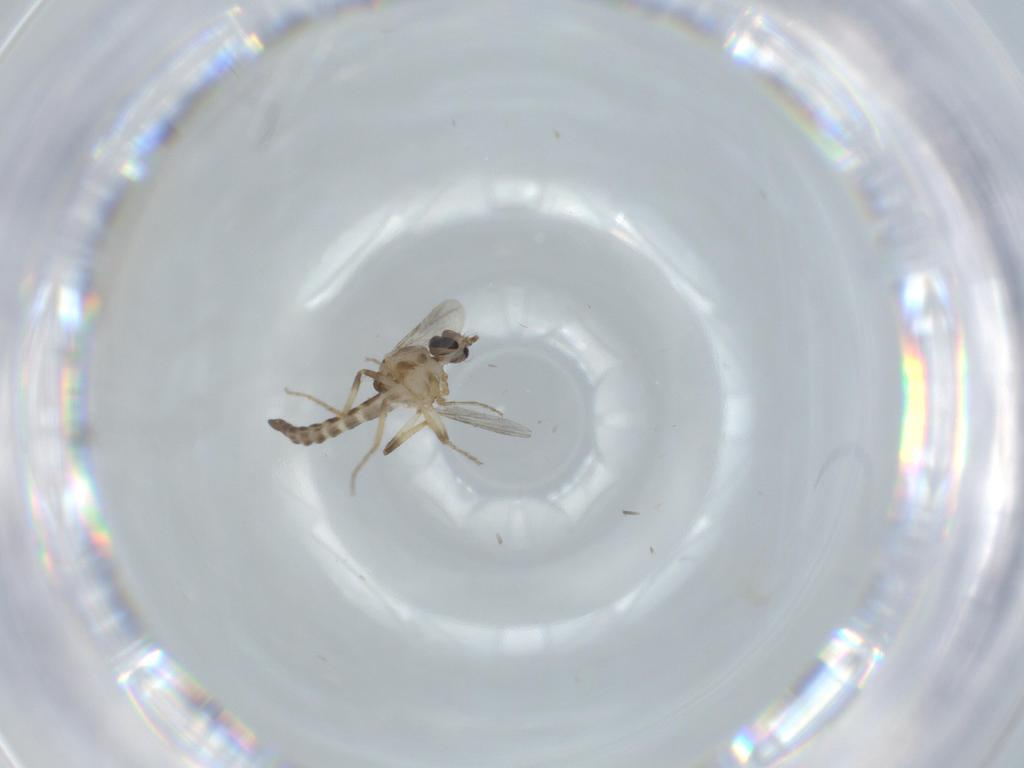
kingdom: Animalia
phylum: Arthropoda
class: Insecta
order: Diptera
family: Ceratopogonidae
